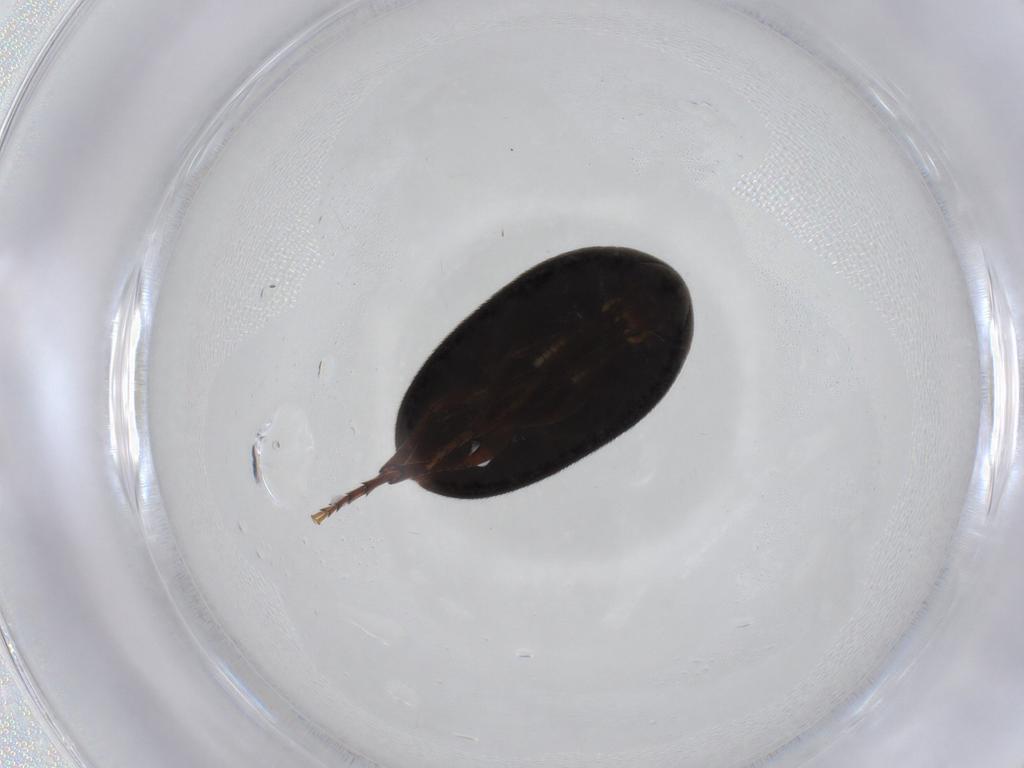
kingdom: Animalia
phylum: Arthropoda
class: Insecta
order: Coleoptera
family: Eucinetidae
